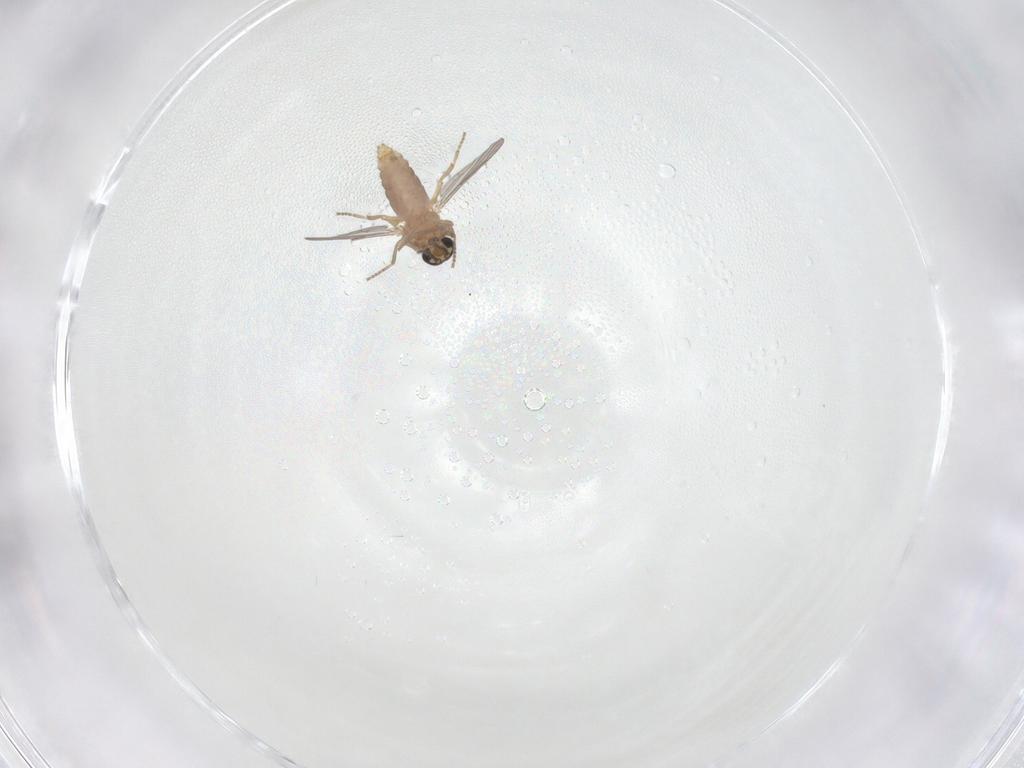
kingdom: Animalia
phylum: Arthropoda
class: Insecta
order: Diptera
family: Ceratopogonidae
